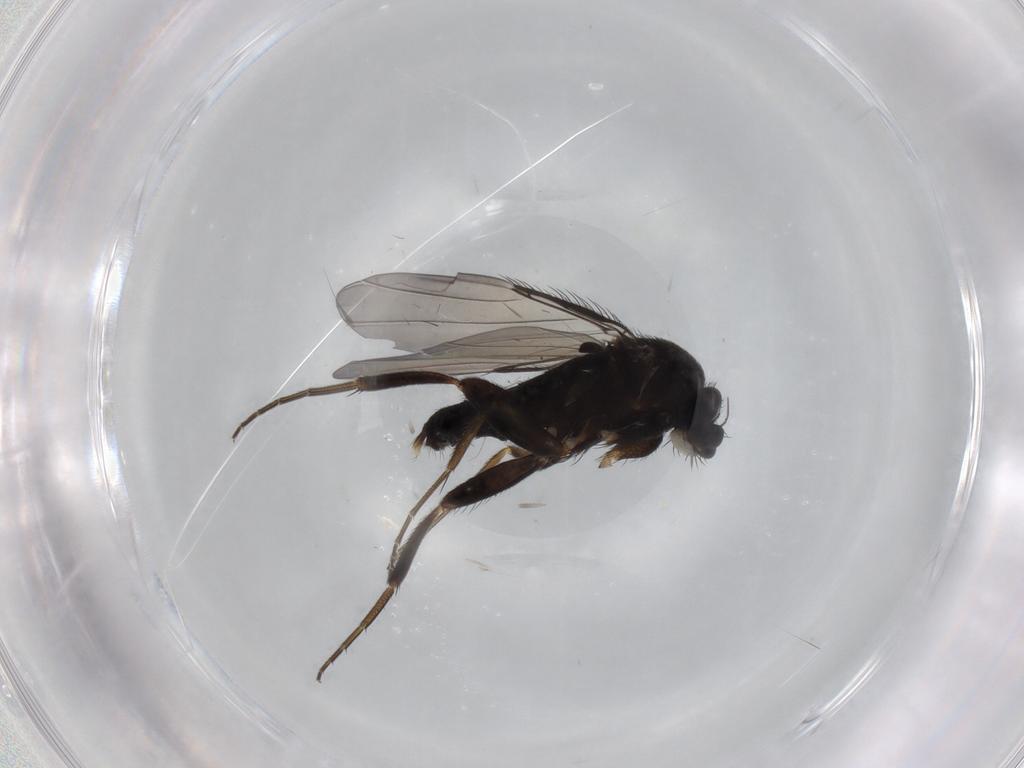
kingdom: Animalia
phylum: Arthropoda
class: Insecta
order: Diptera
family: Phoridae
